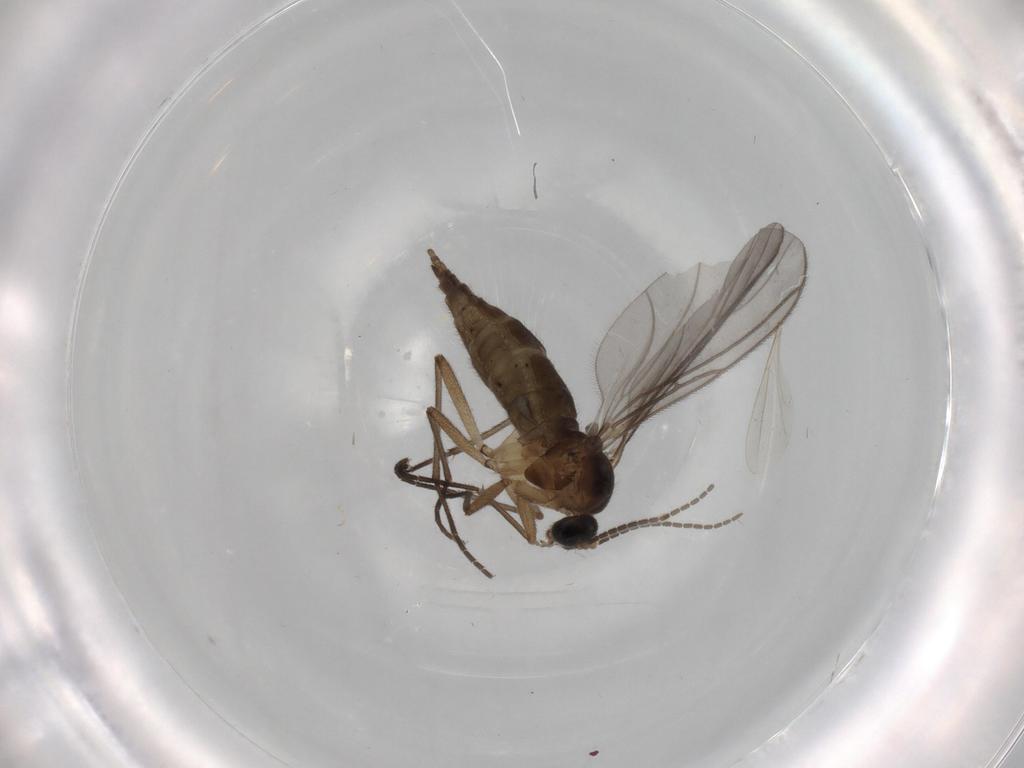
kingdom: Animalia
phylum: Arthropoda
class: Insecta
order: Diptera
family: Sciaridae
